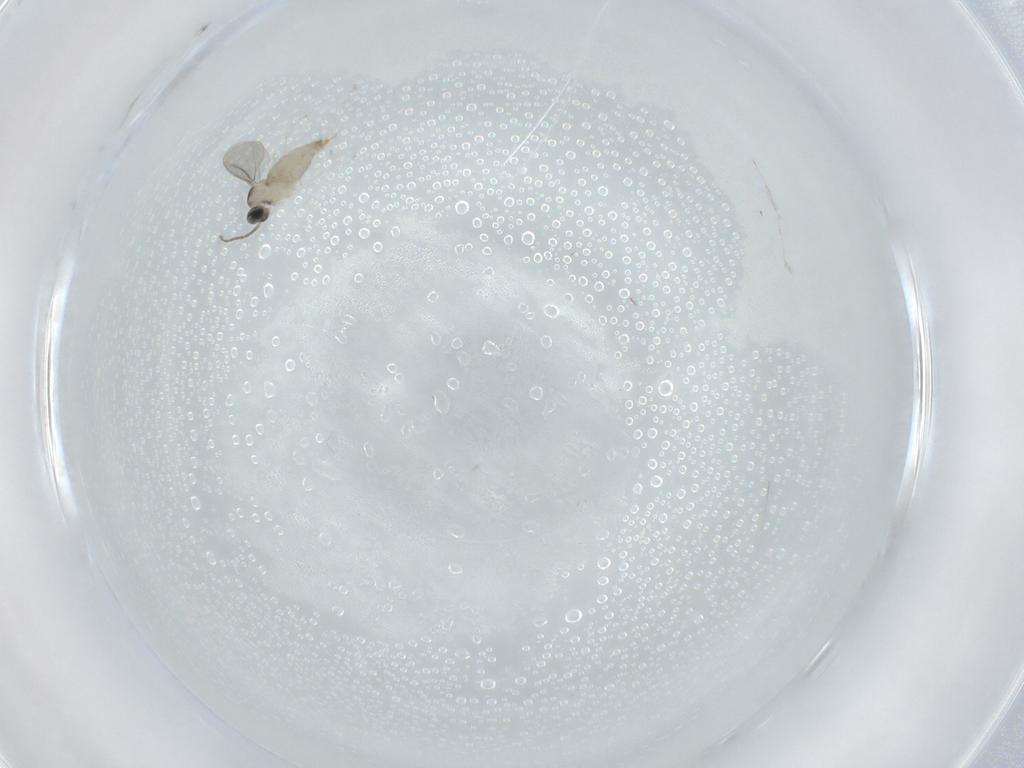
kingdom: Animalia
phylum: Arthropoda
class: Insecta
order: Diptera
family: Cecidomyiidae
